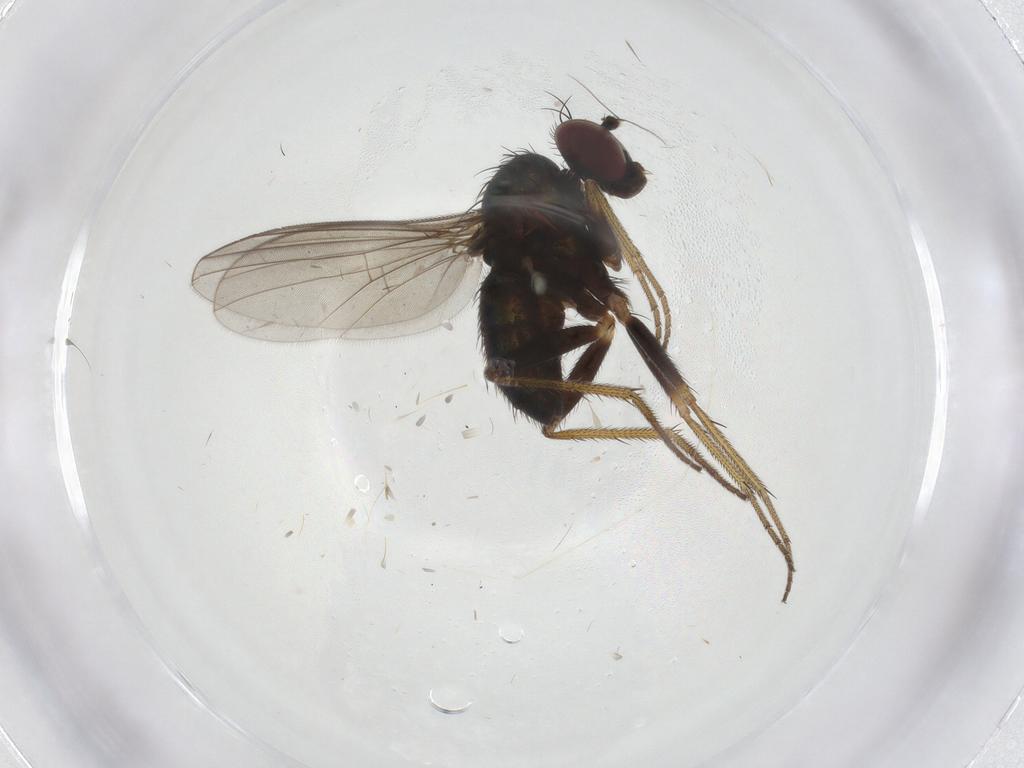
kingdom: Animalia
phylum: Arthropoda
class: Insecta
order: Diptera
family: Dolichopodidae
